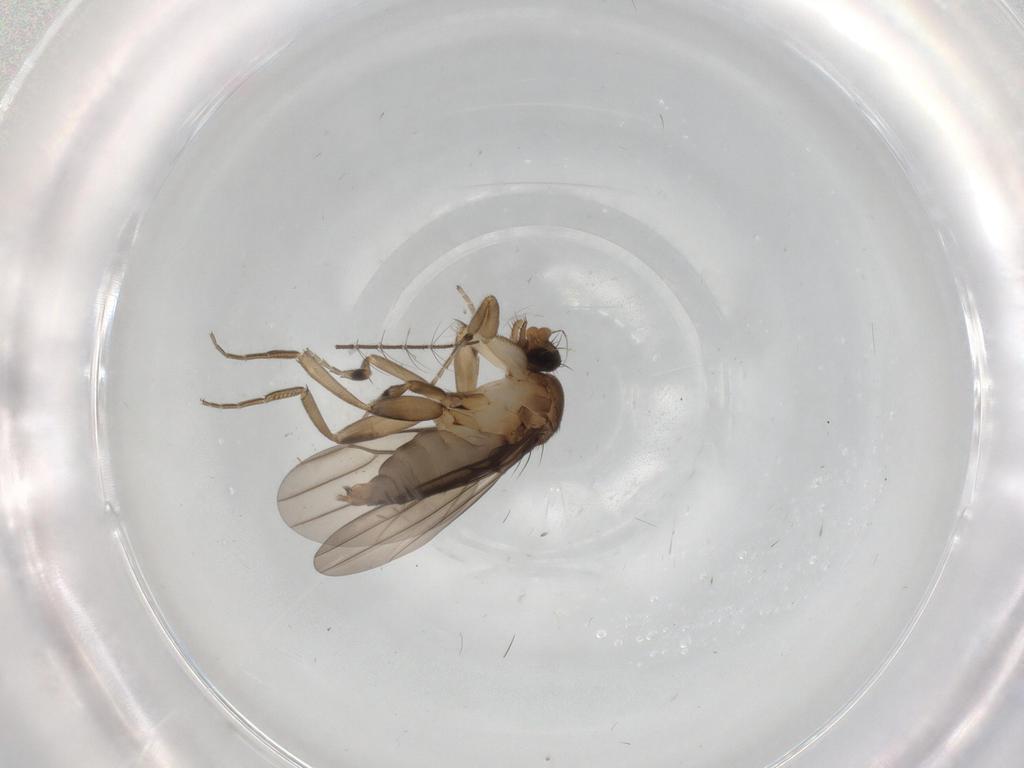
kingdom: Animalia
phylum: Arthropoda
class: Insecta
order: Diptera
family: Cecidomyiidae
